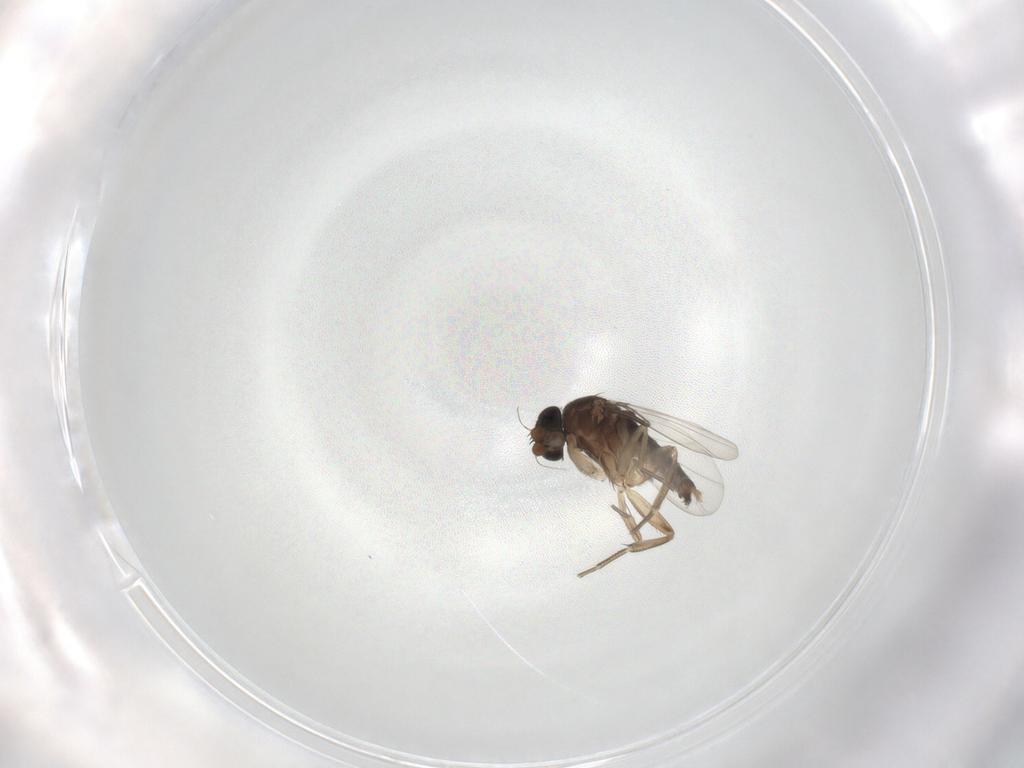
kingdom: Animalia
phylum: Arthropoda
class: Insecta
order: Diptera
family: Phoridae
